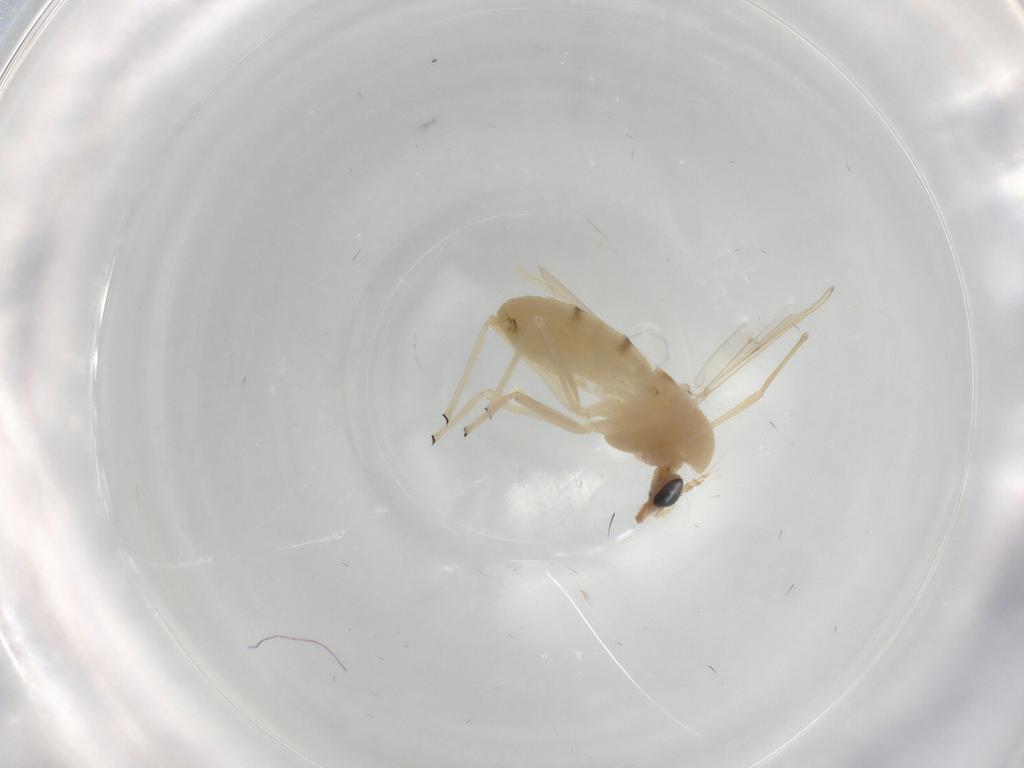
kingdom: Animalia
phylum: Arthropoda
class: Insecta
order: Diptera
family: Chironomidae
